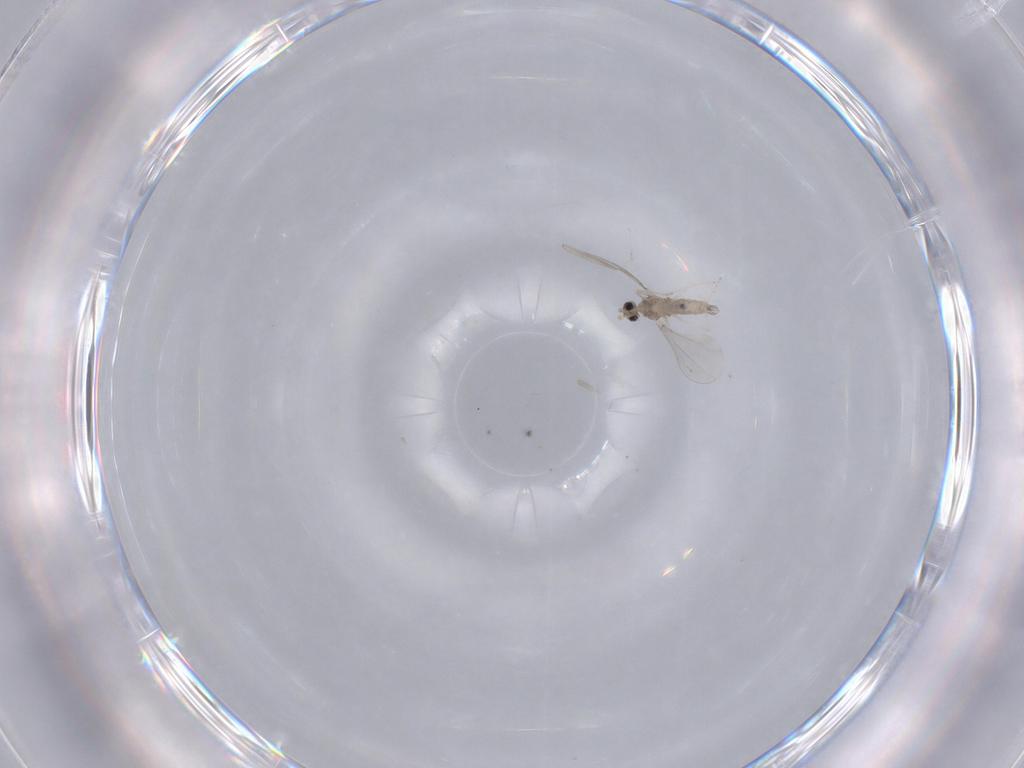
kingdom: Animalia
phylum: Arthropoda
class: Insecta
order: Diptera
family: Cecidomyiidae
